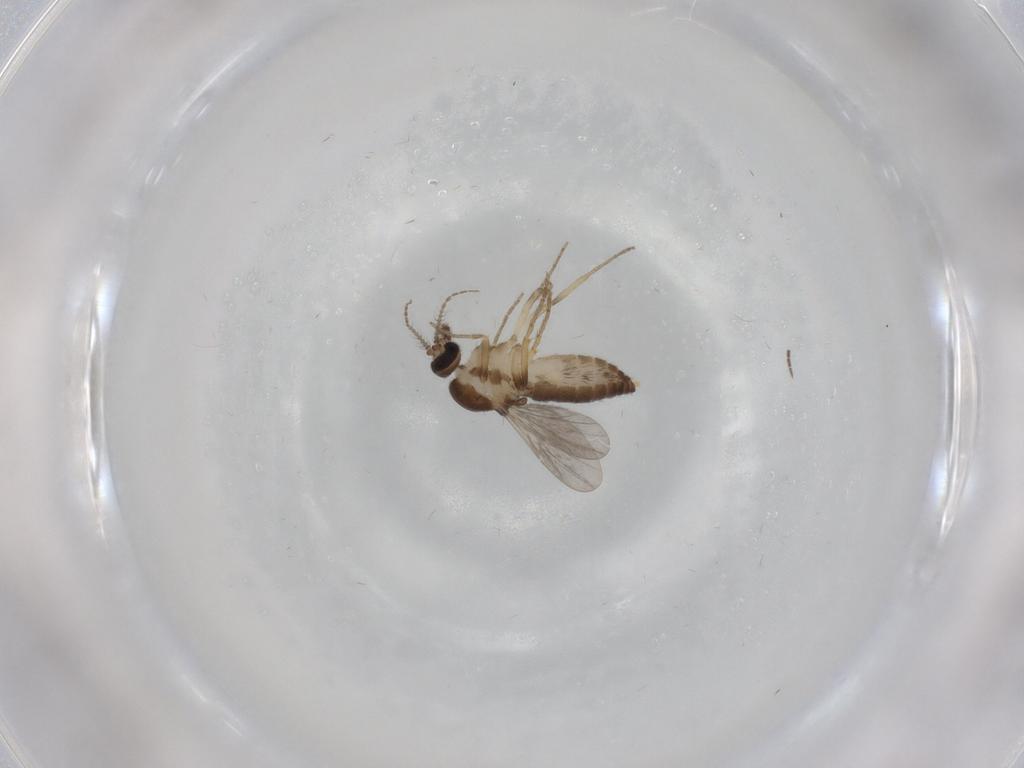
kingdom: Animalia
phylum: Arthropoda
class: Insecta
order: Diptera
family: Ceratopogonidae
